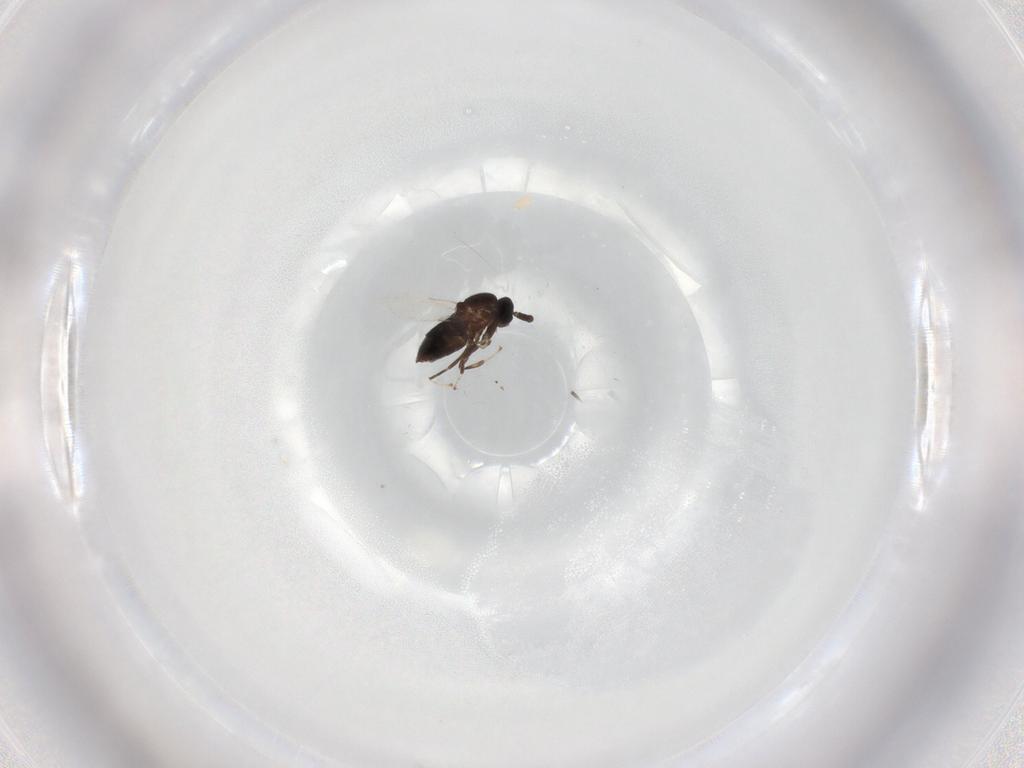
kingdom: Animalia
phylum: Arthropoda
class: Insecta
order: Diptera
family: Scatopsidae
